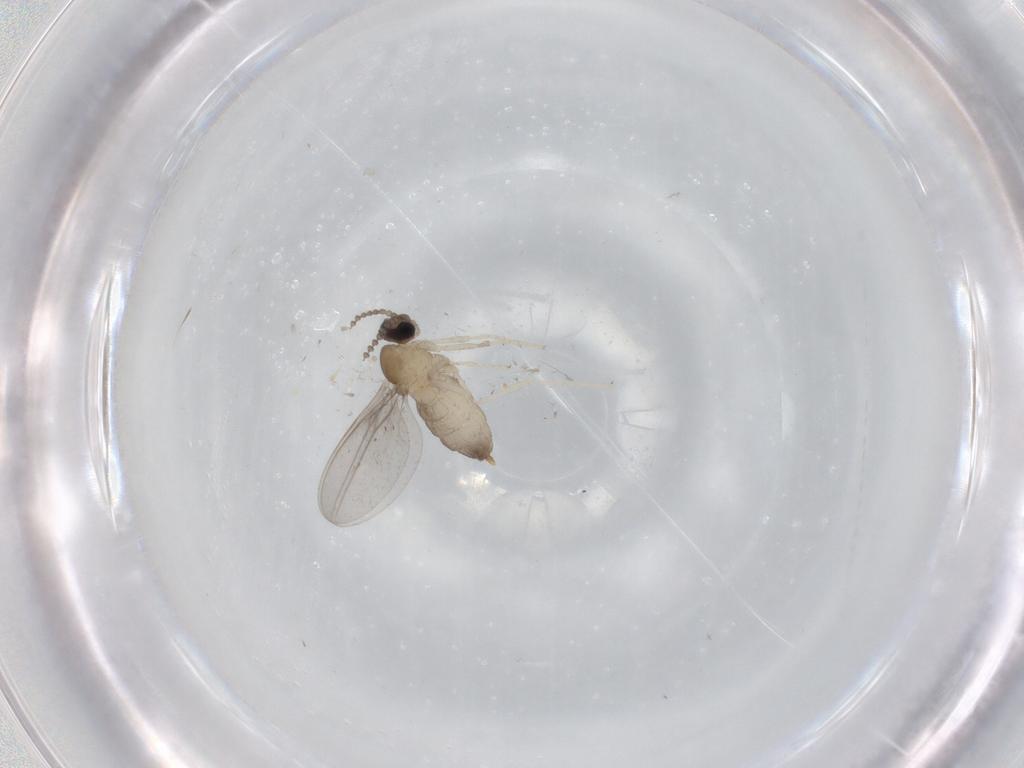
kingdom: Animalia
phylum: Arthropoda
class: Insecta
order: Diptera
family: Cecidomyiidae
